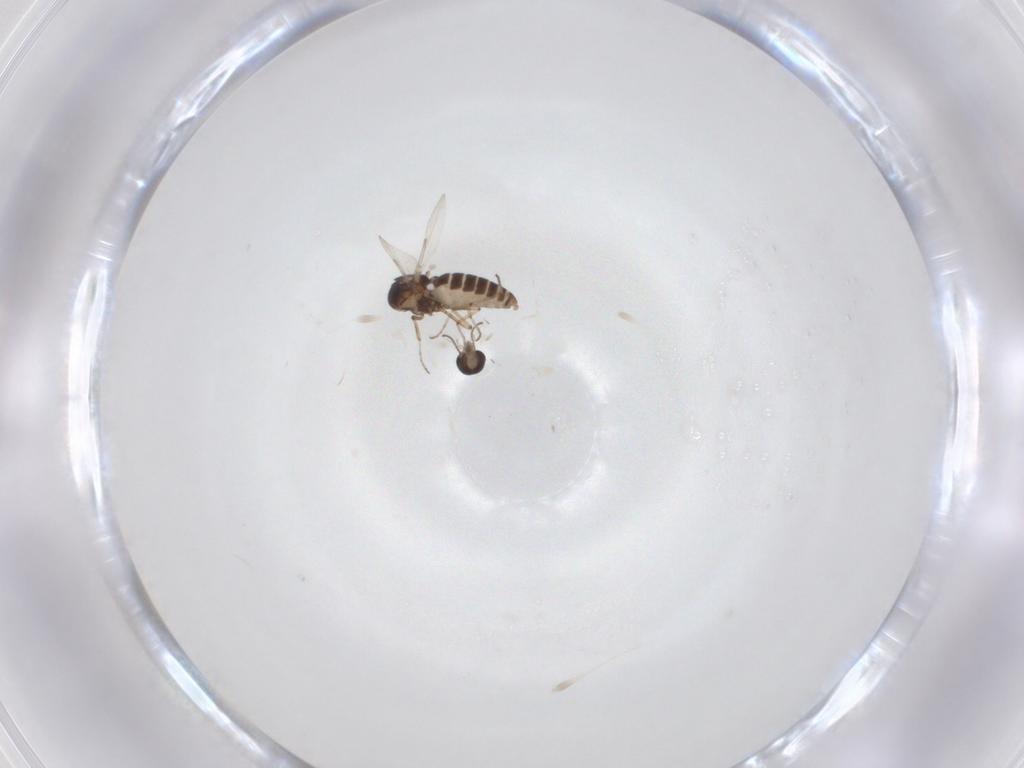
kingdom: Animalia
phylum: Arthropoda
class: Insecta
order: Diptera
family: Ceratopogonidae
